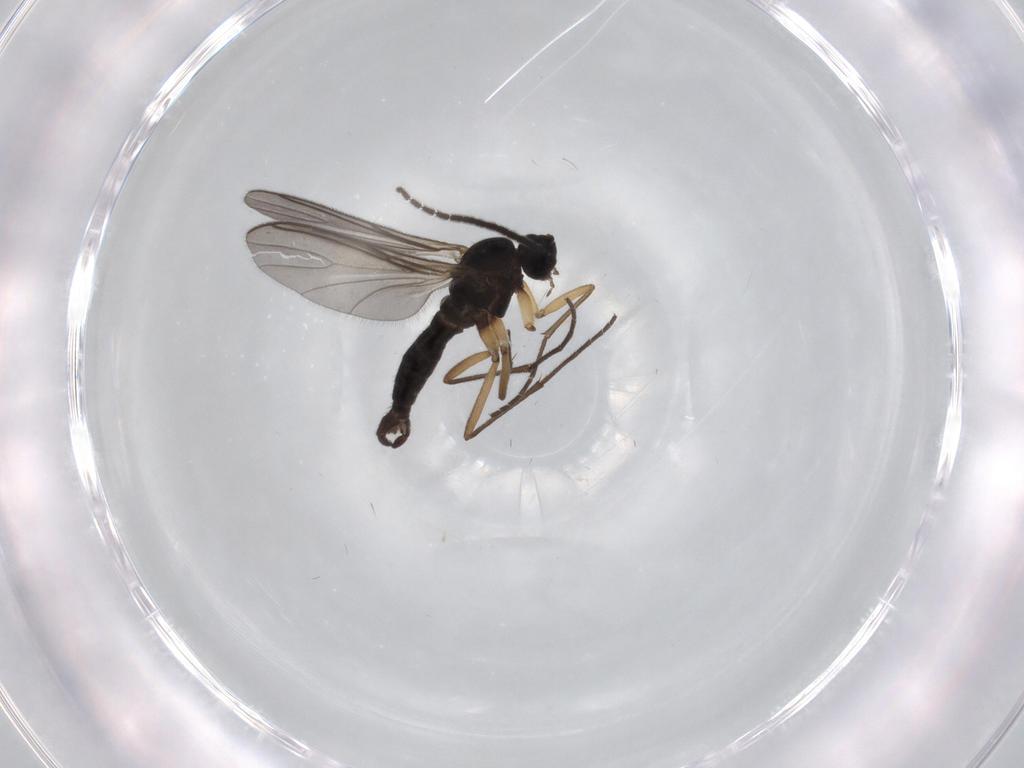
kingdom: Animalia
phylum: Arthropoda
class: Insecta
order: Diptera
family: Sciaridae
